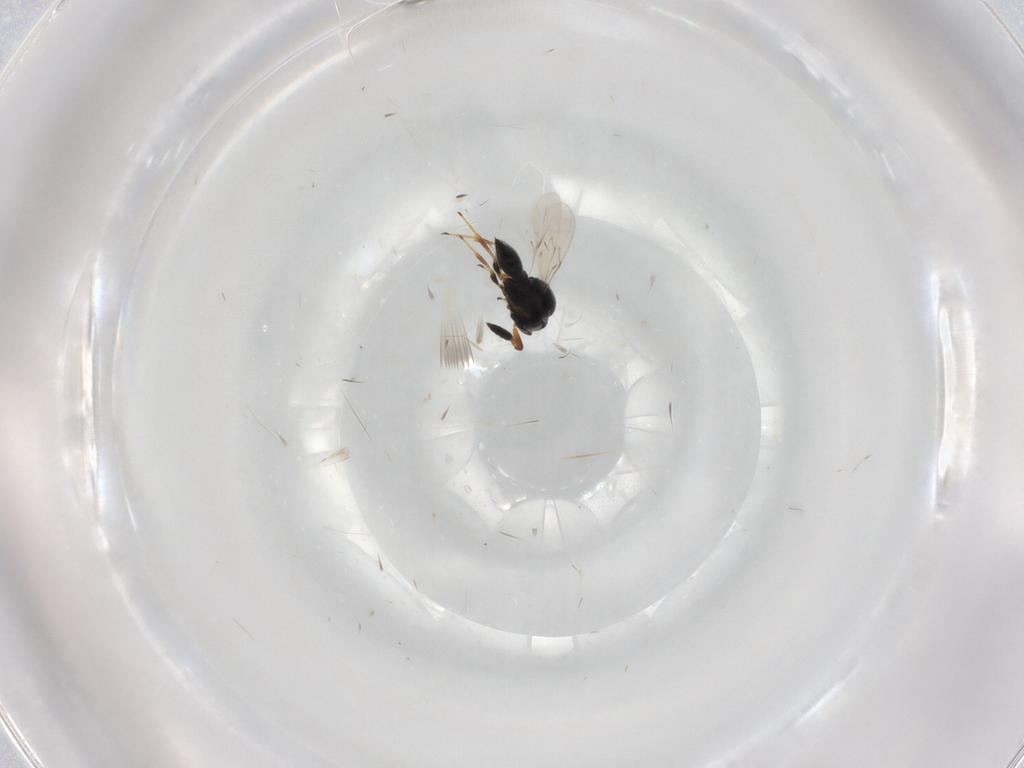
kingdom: Animalia
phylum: Arthropoda
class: Insecta
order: Hymenoptera
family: Scelionidae
